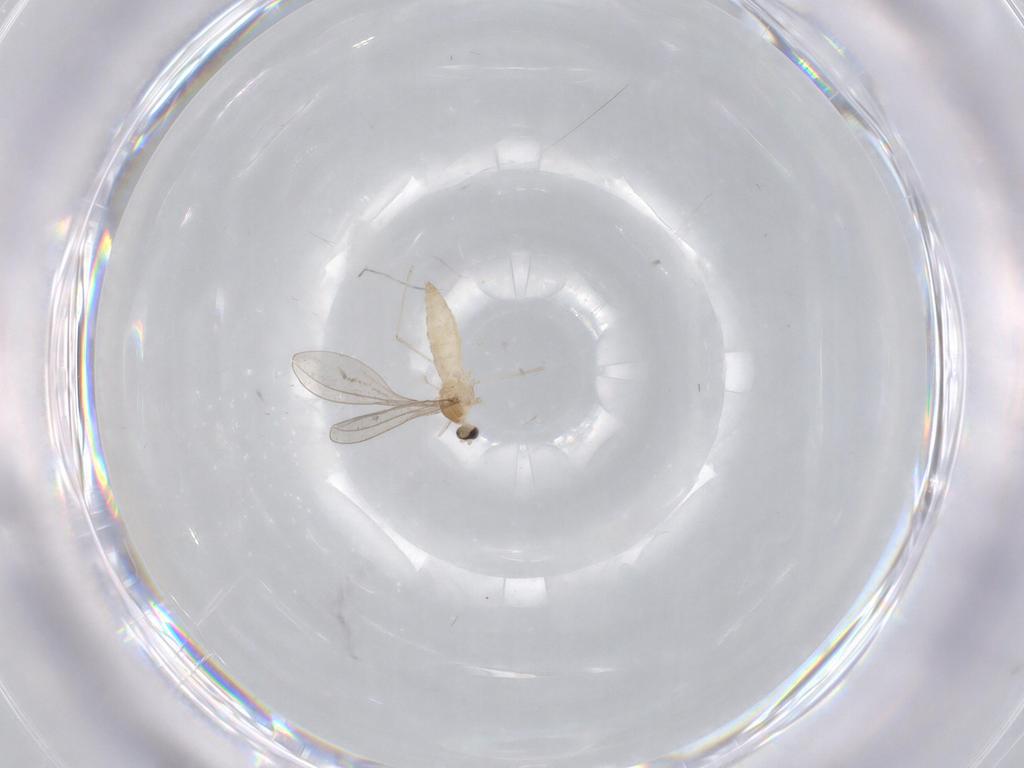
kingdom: Animalia
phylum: Arthropoda
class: Insecta
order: Diptera
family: Cecidomyiidae
